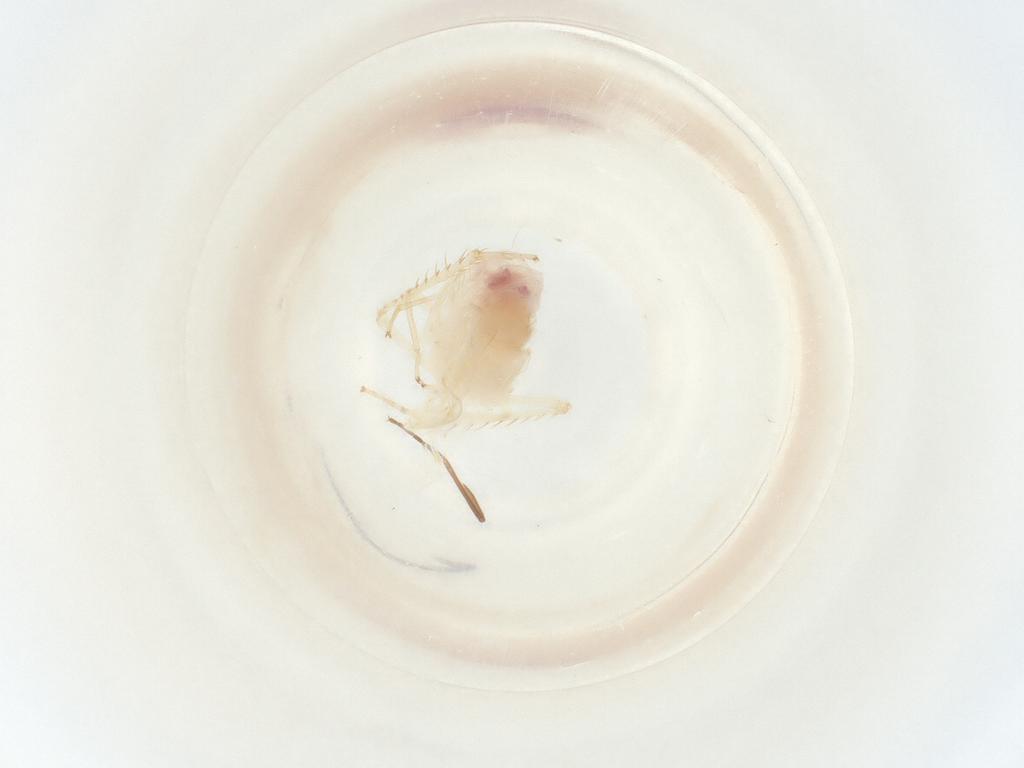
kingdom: Animalia
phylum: Arthropoda
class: Insecta
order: Hymenoptera
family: Dryinidae
